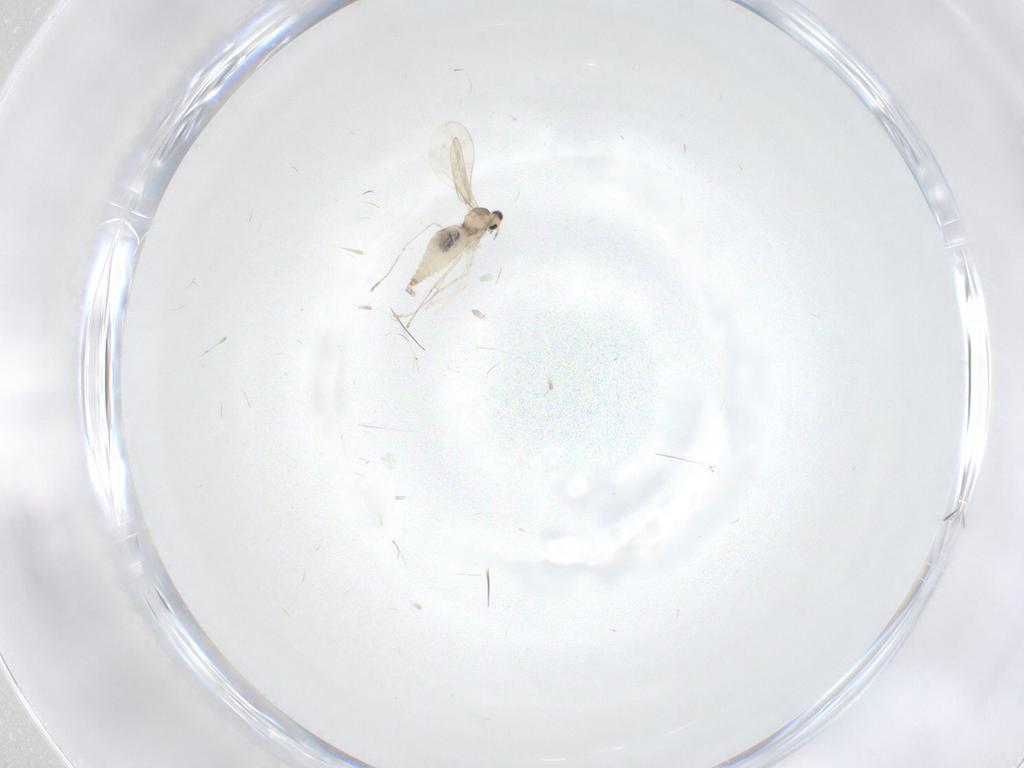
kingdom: Animalia
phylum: Arthropoda
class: Insecta
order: Diptera
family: Cecidomyiidae
